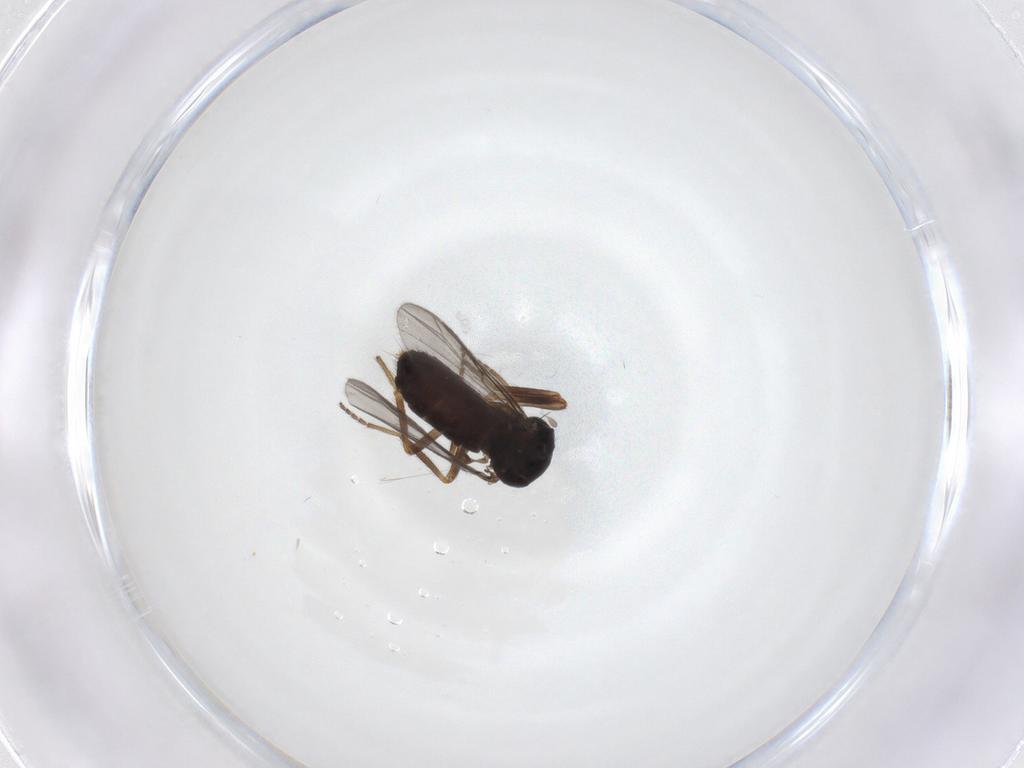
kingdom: Animalia
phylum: Arthropoda
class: Insecta
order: Diptera
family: Ceratopogonidae
